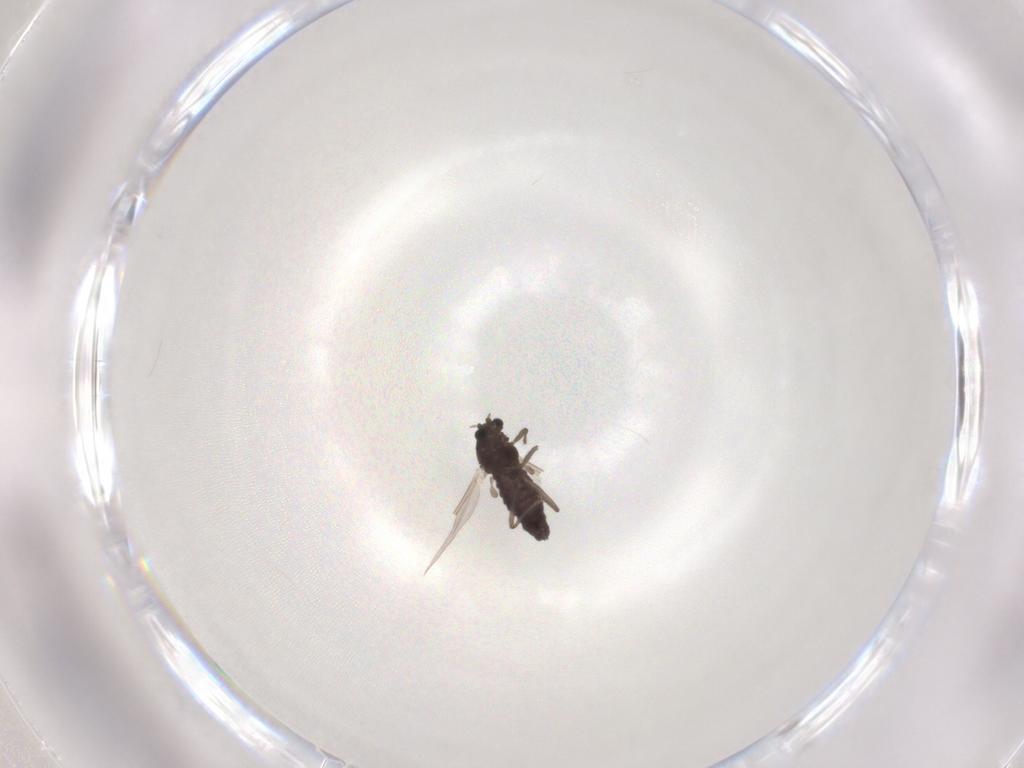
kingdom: Animalia
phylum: Arthropoda
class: Insecta
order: Diptera
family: Chironomidae
